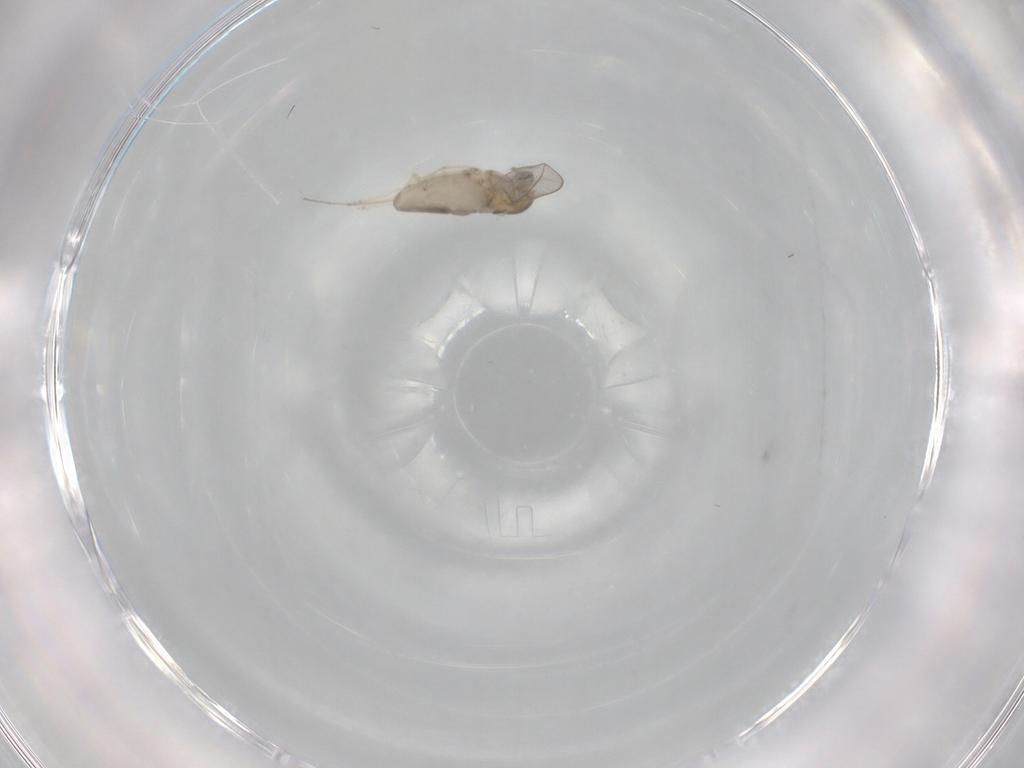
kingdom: Animalia
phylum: Arthropoda
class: Insecta
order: Diptera
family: Cecidomyiidae
